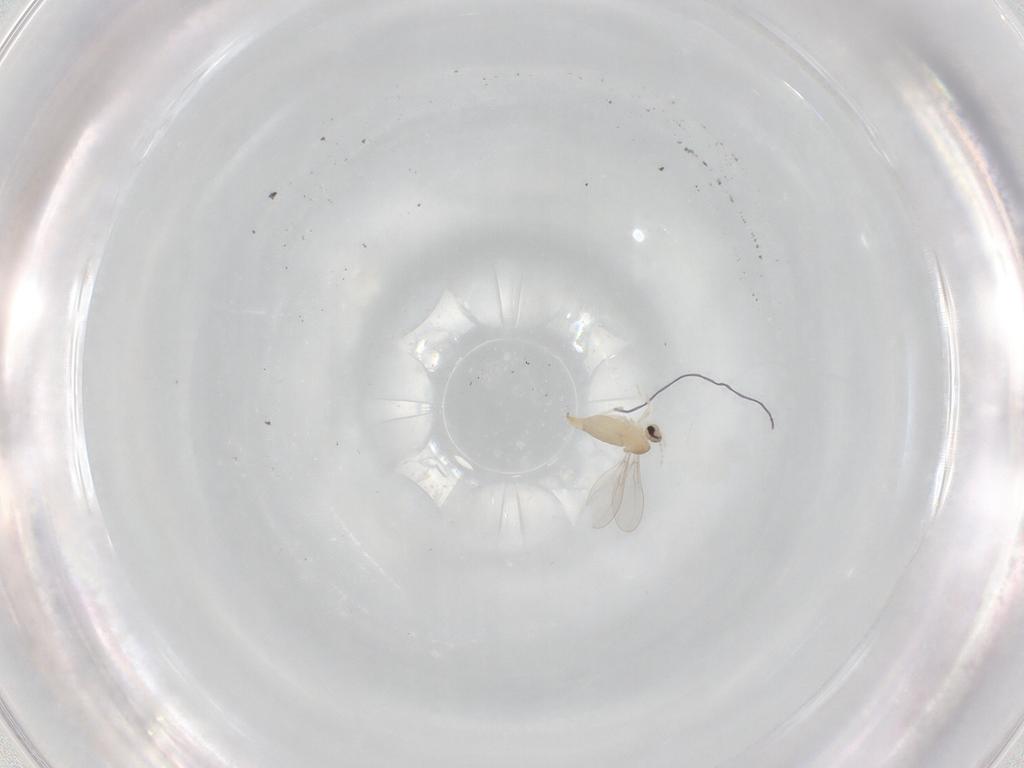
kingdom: Animalia
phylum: Arthropoda
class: Insecta
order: Diptera
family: Cecidomyiidae
